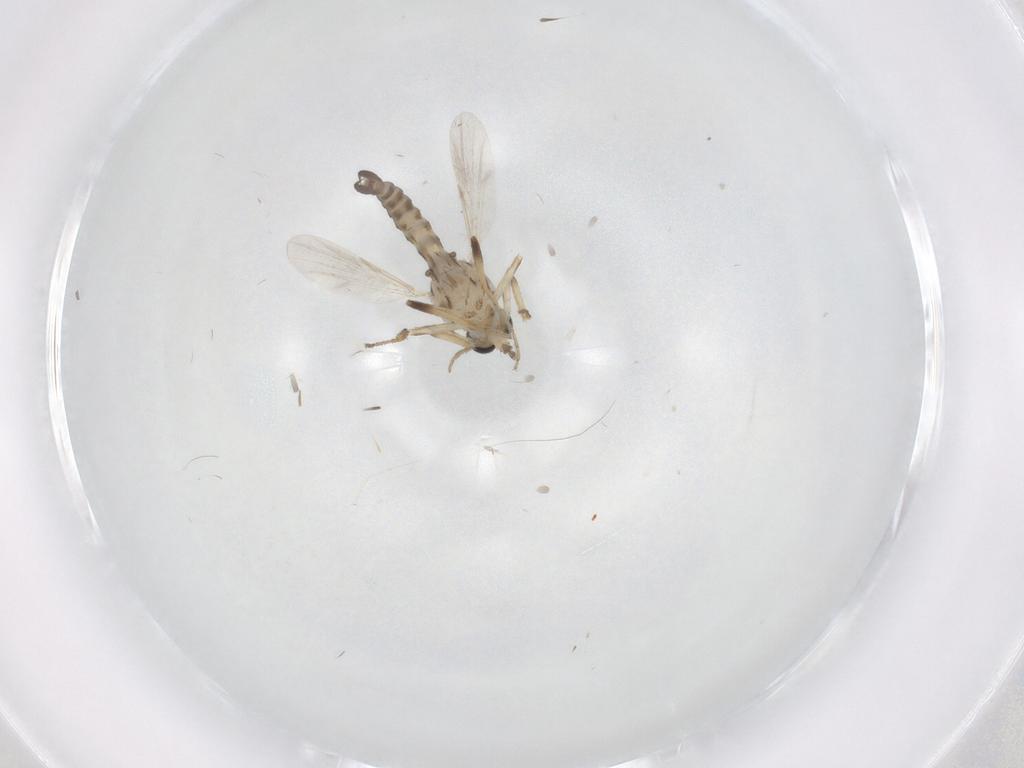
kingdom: Animalia
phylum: Arthropoda
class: Insecta
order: Diptera
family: Ceratopogonidae
